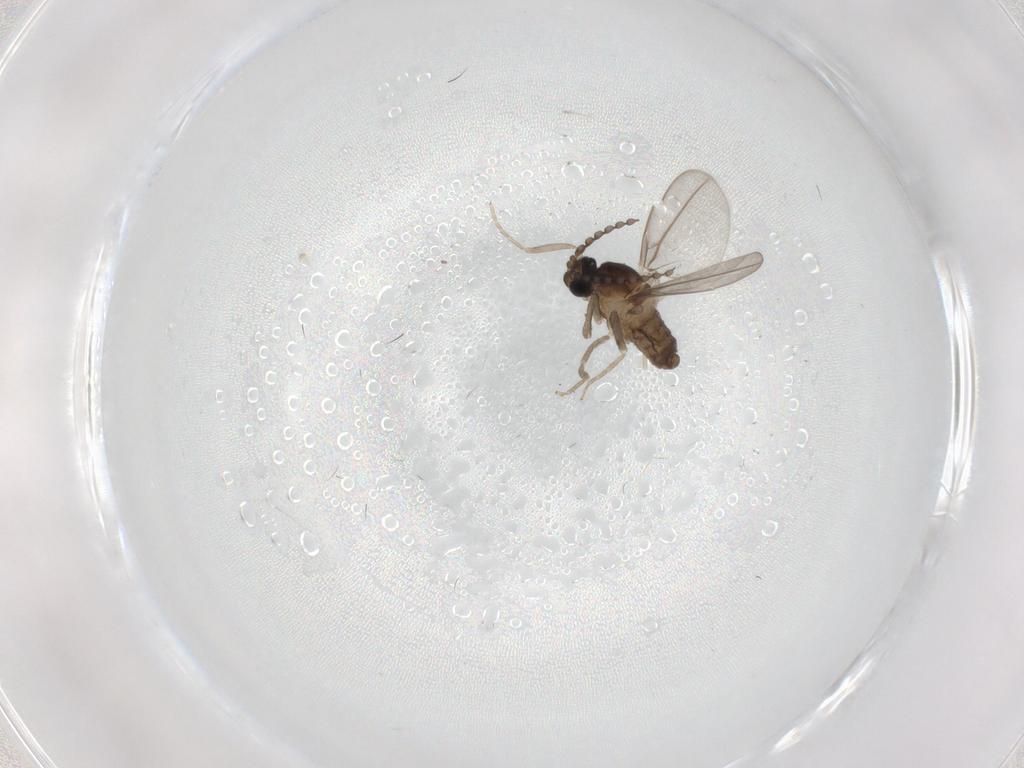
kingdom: Animalia
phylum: Arthropoda
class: Insecta
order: Diptera
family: Cecidomyiidae
